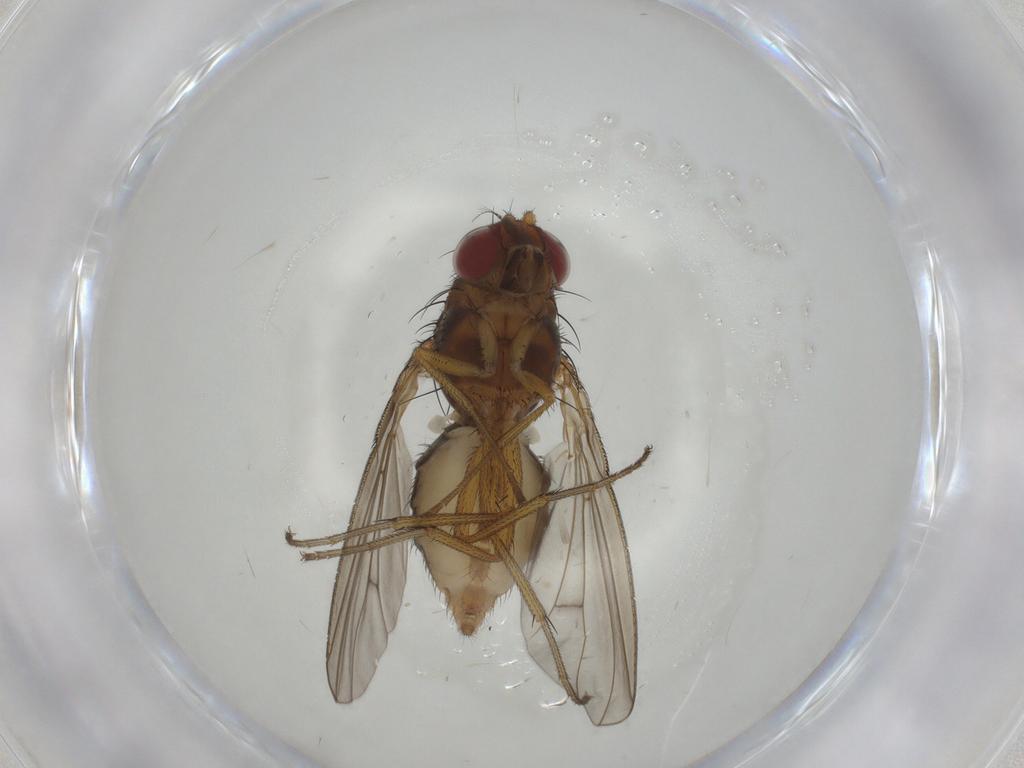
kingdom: Animalia
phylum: Arthropoda
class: Insecta
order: Diptera
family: Curtonotidae
